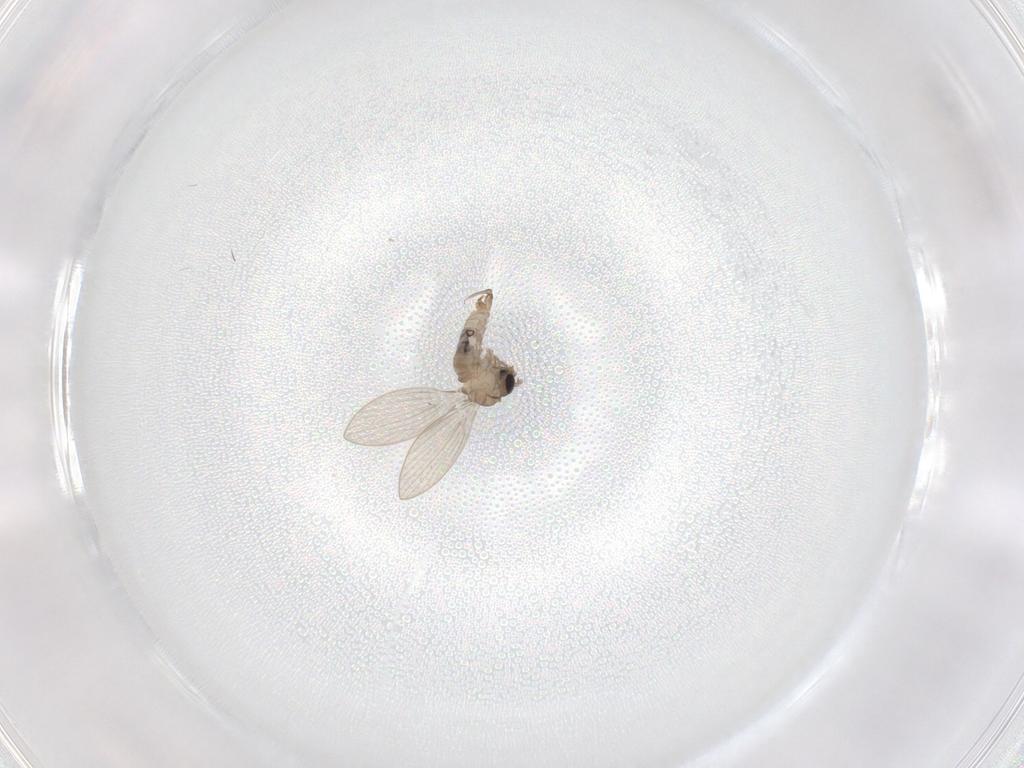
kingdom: Animalia
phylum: Arthropoda
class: Insecta
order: Diptera
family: Psychodidae
